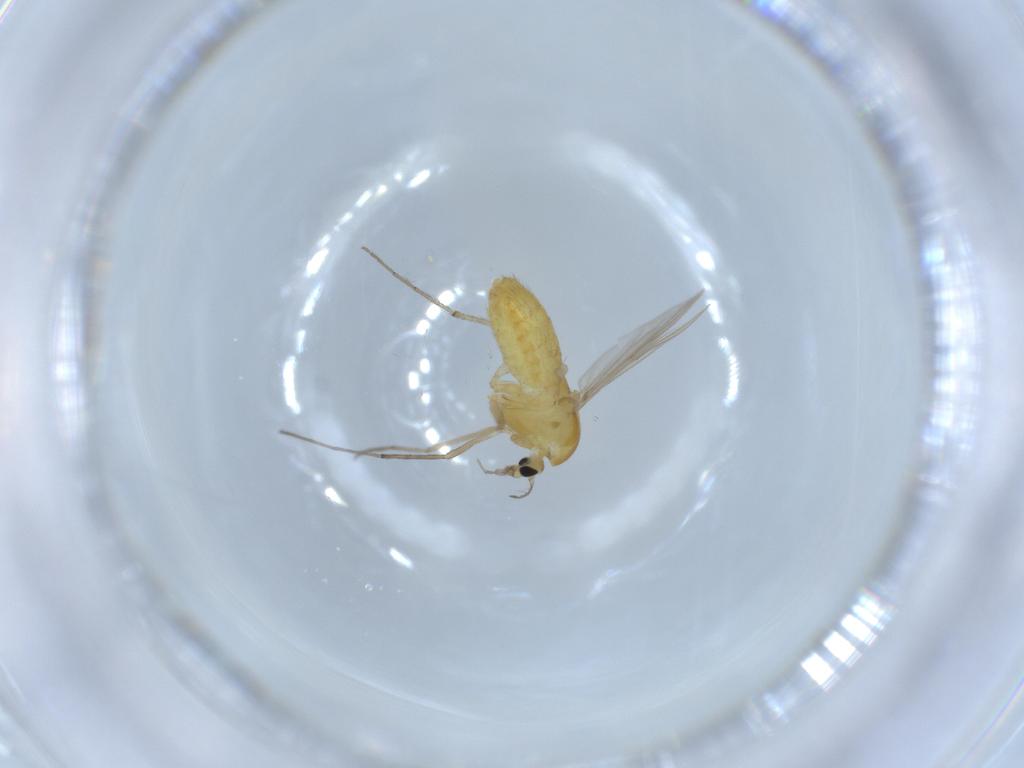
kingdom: Animalia
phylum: Arthropoda
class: Insecta
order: Diptera
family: Chironomidae
